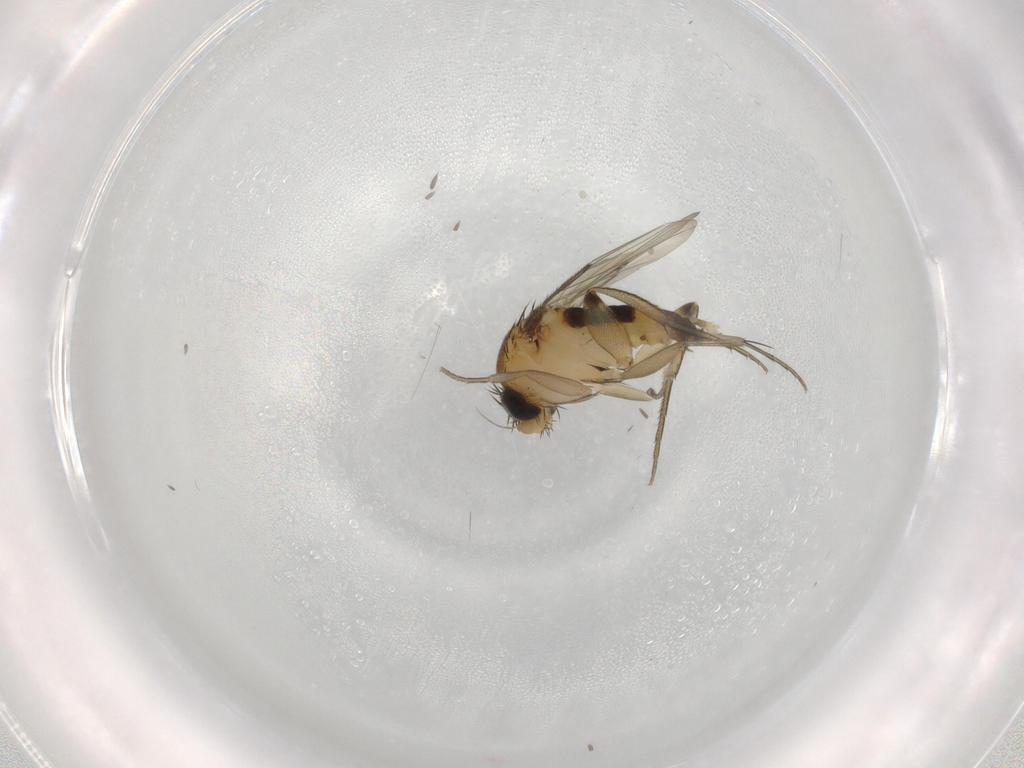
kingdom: Animalia
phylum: Arthropoda
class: Insecta
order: Diptera
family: Phoridae
